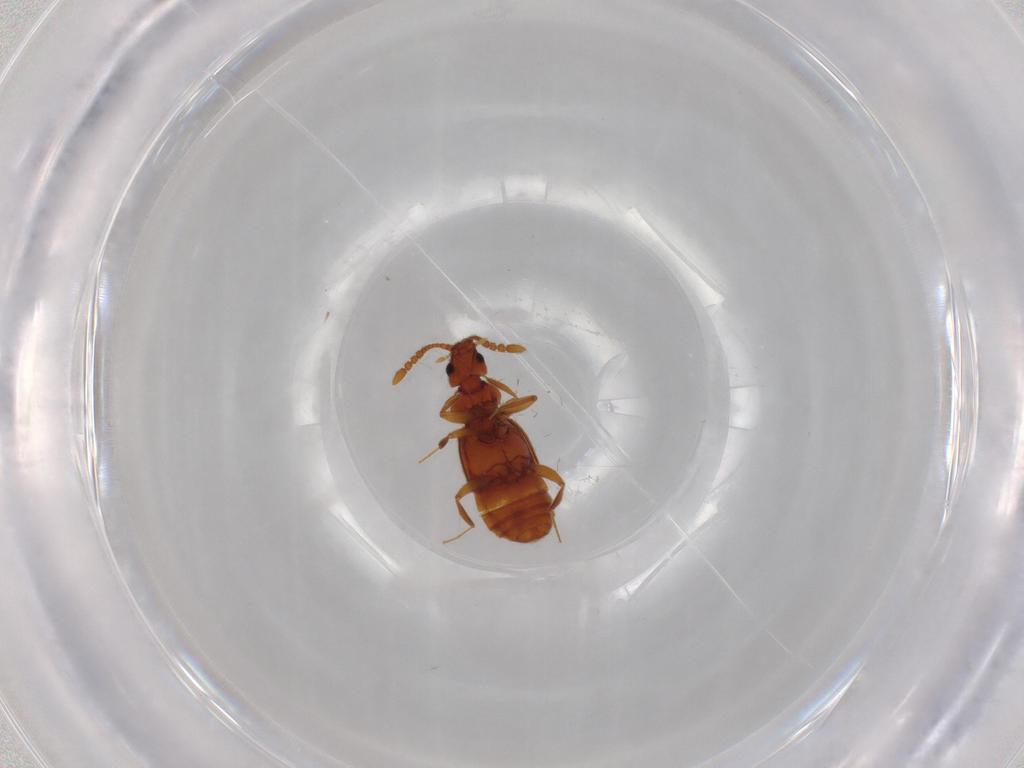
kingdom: Animalia
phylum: Arthropoda
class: Insecta
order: Coleoptera
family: Staphylinidae
